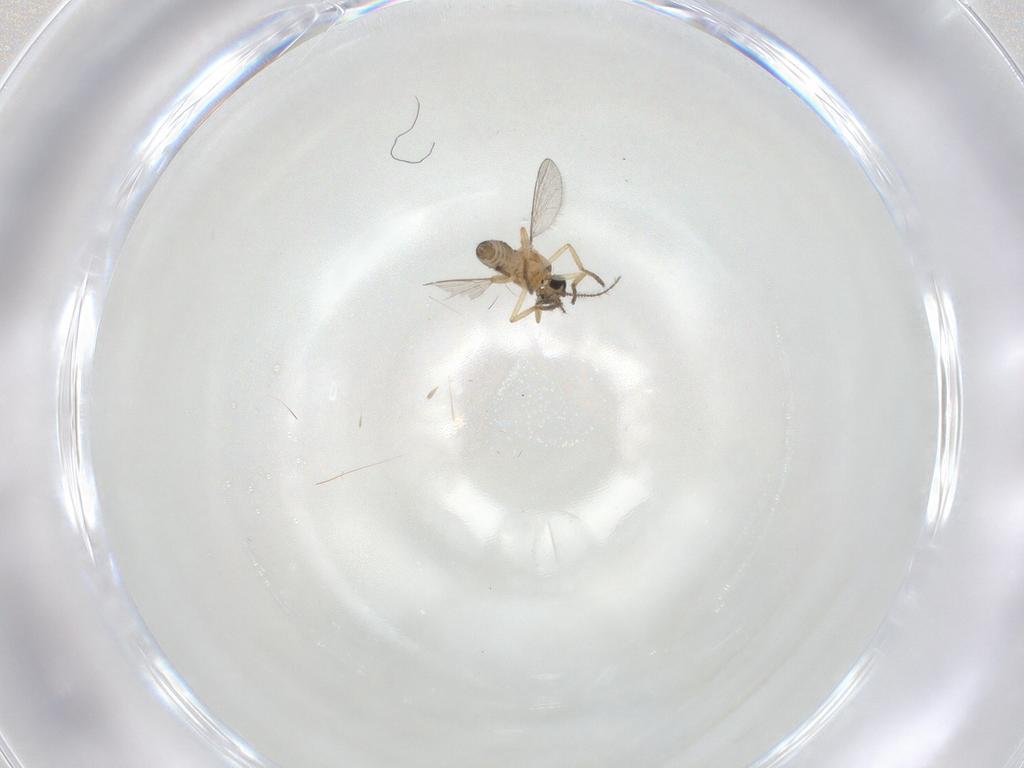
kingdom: Animalia
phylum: Arthropoda
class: Insecta
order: Diptera
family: Chironomidae
